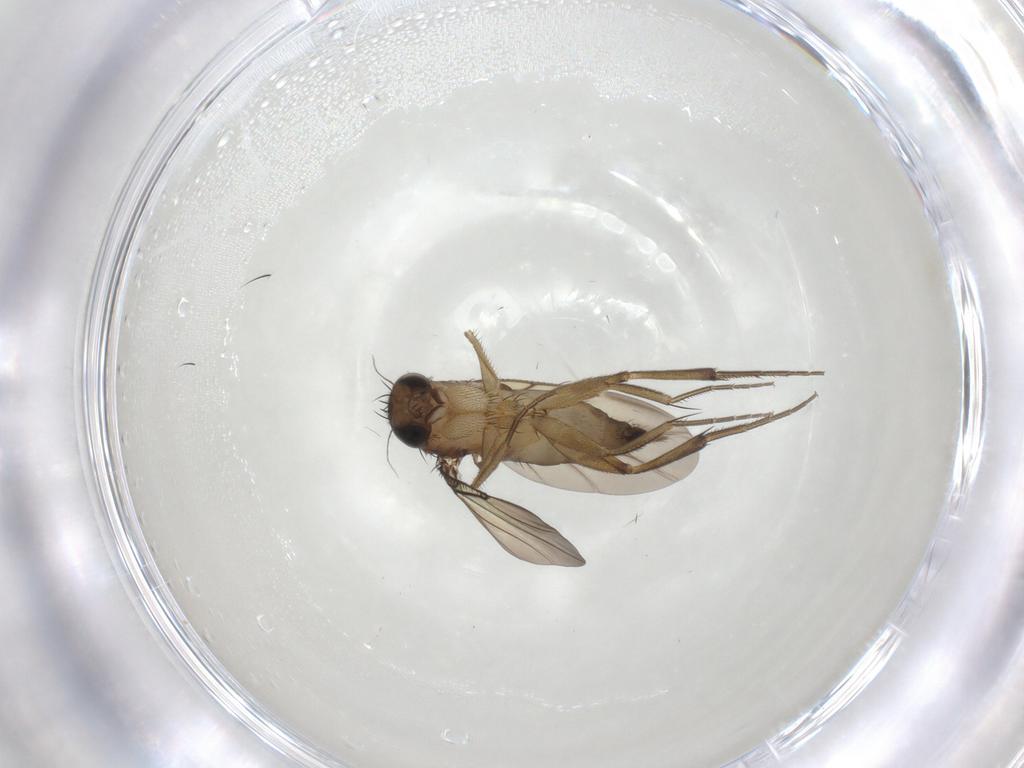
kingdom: Animalia
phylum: Arthropoda
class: Insecta
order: Diptera
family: Phoridae
